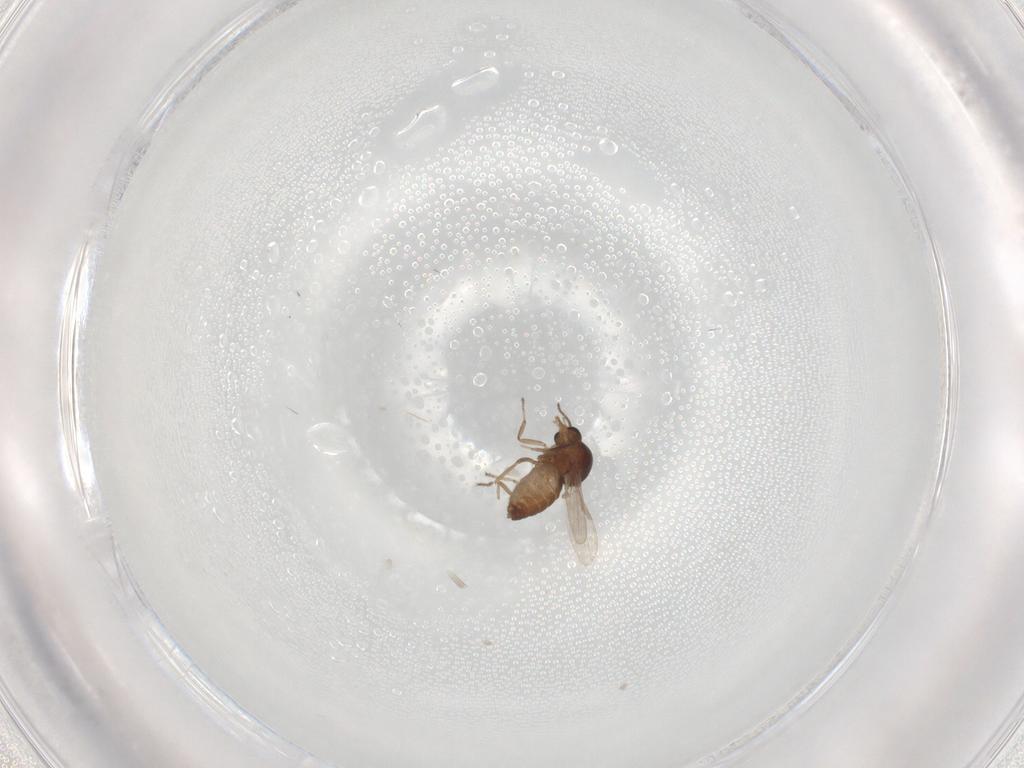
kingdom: Animalia
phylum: Arthropoda
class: Insecta
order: Diptera
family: Ceratopogonidae
